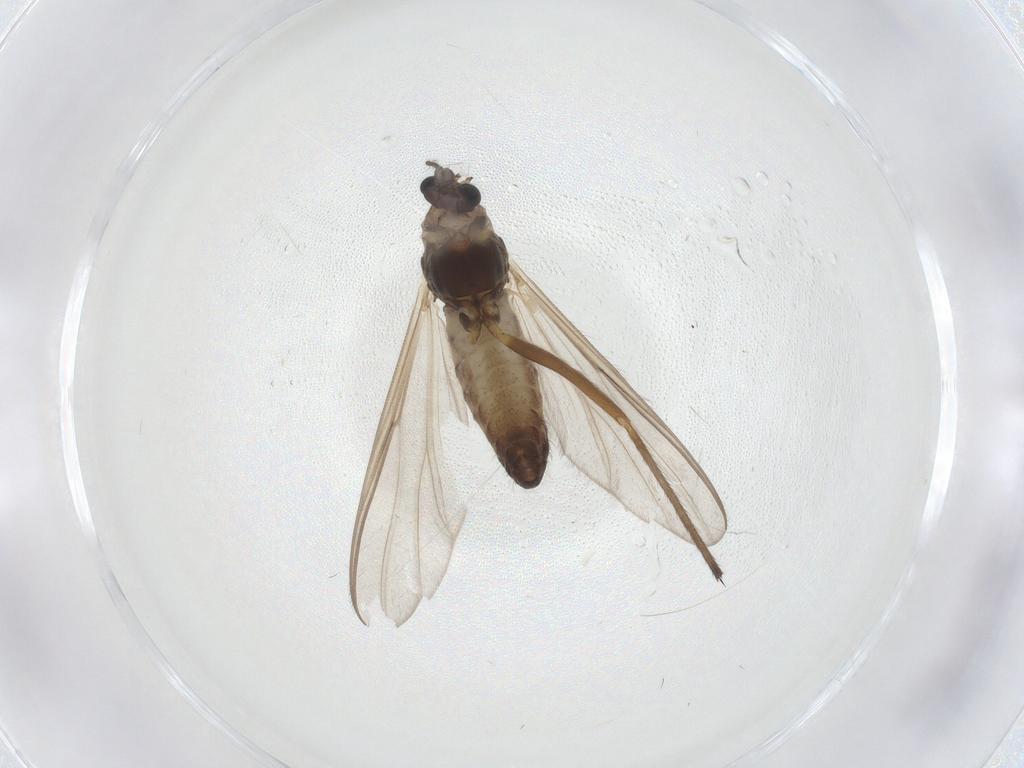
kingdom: Animalia
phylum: Arthropoda
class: Insecta
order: Diptera
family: Chironomidae
